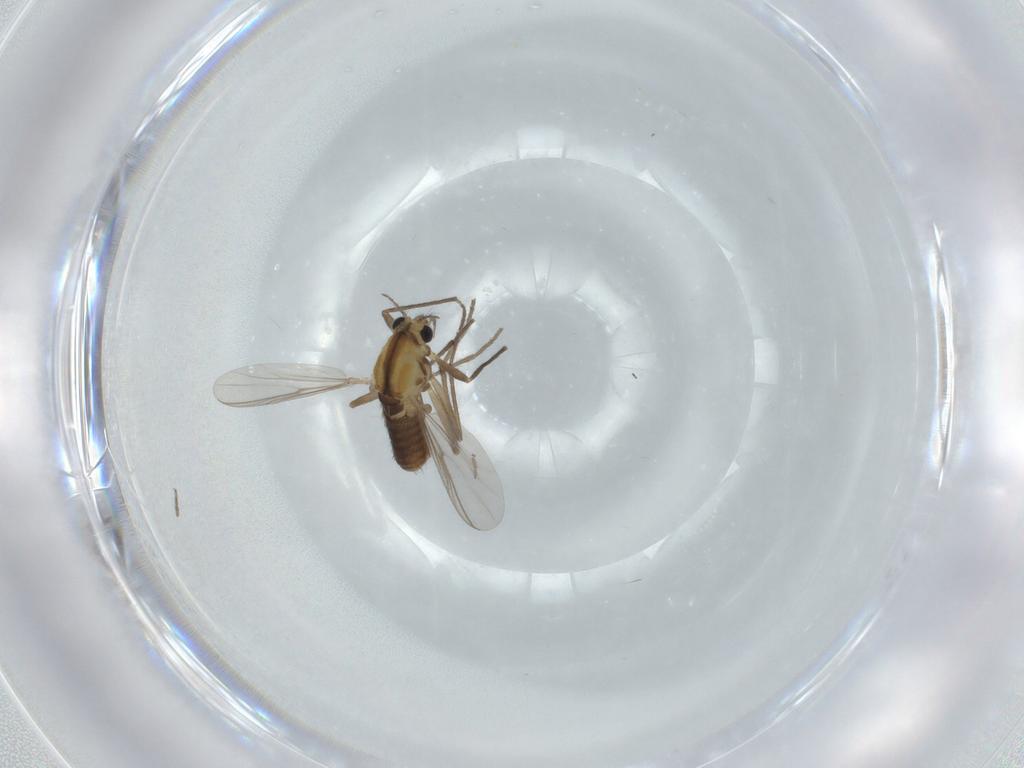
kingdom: Animalia
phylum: Arthropoda
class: Insecta
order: Diptera
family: Chironomidae
